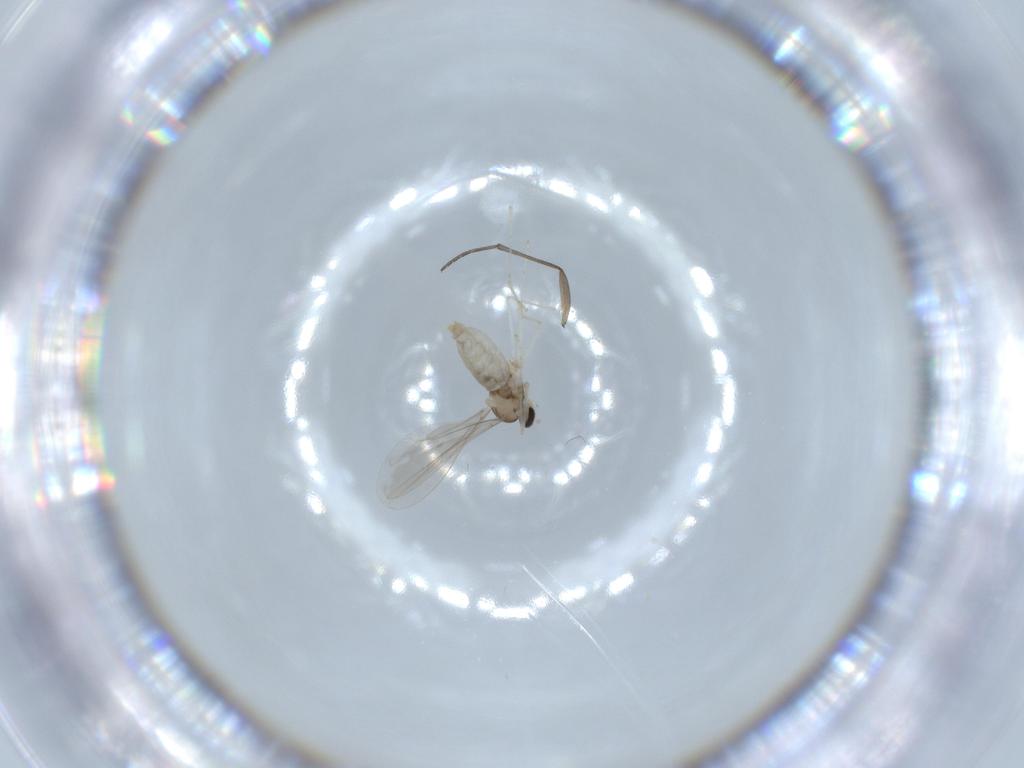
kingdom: Animalia
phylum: Arthropoda
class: Insecta
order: Diptera
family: Cecidomyiidae
